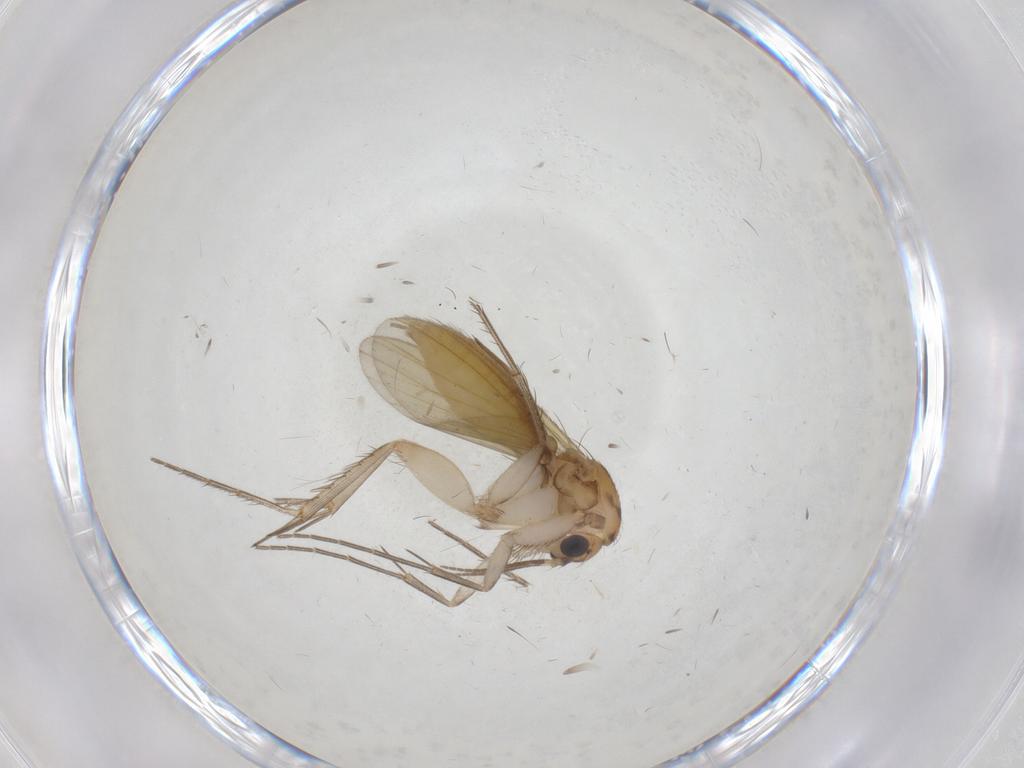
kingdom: Animalia
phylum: Arthropoda
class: Insecta
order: Diptera
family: Mycetophilidae
